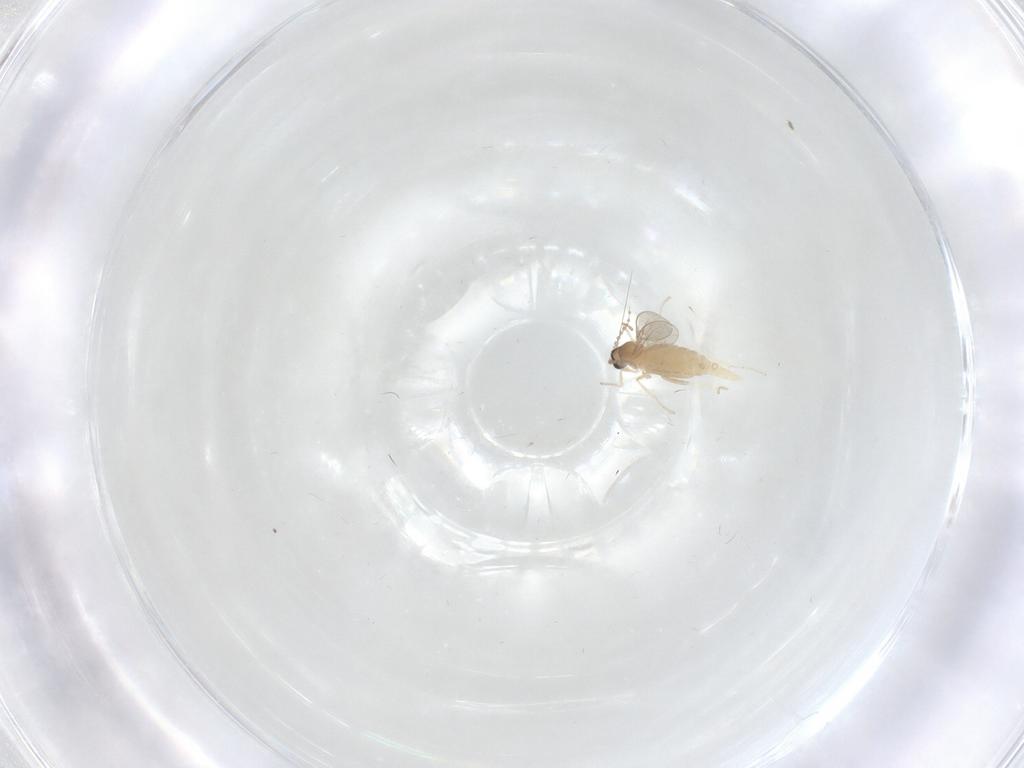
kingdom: Animalia
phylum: Arthropoda
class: Insecta
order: Diptera
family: Cecidomyiidae
